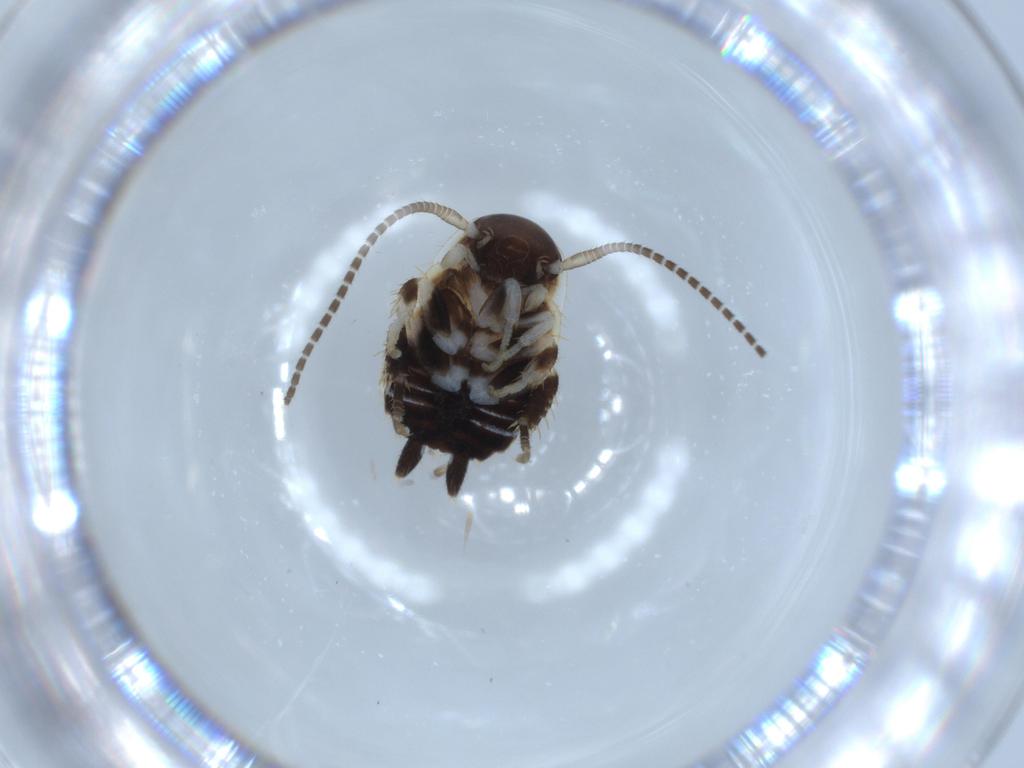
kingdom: Animalia
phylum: Arthropoda
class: Insecta
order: Blattodea
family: Ectobiidae
